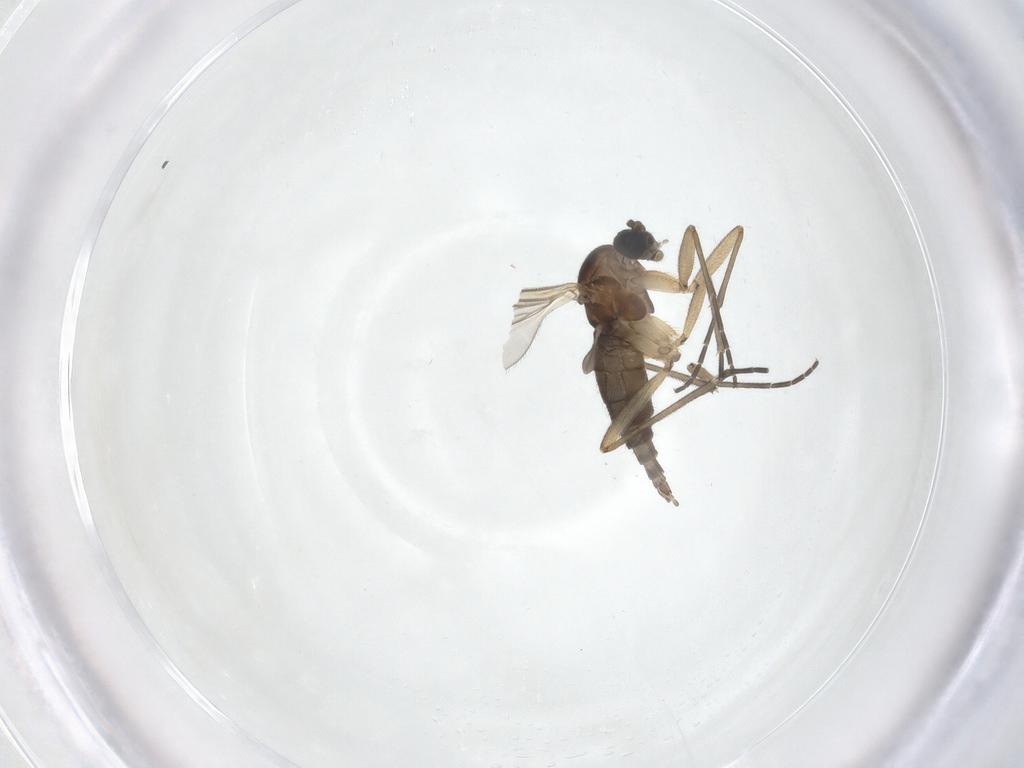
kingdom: Animalia
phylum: Arthropoda
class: Insecta
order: Diptera
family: Sciaridae
